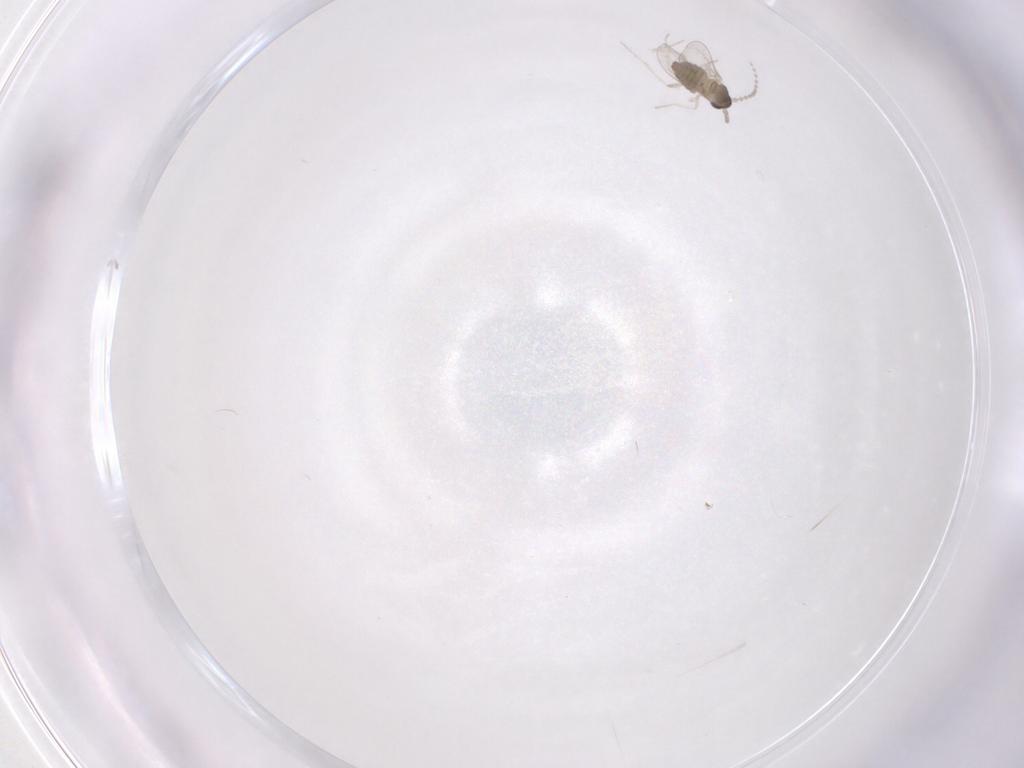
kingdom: Animalia
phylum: Arthropoda
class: Insecta
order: Diptera
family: Cecidomyiidae
